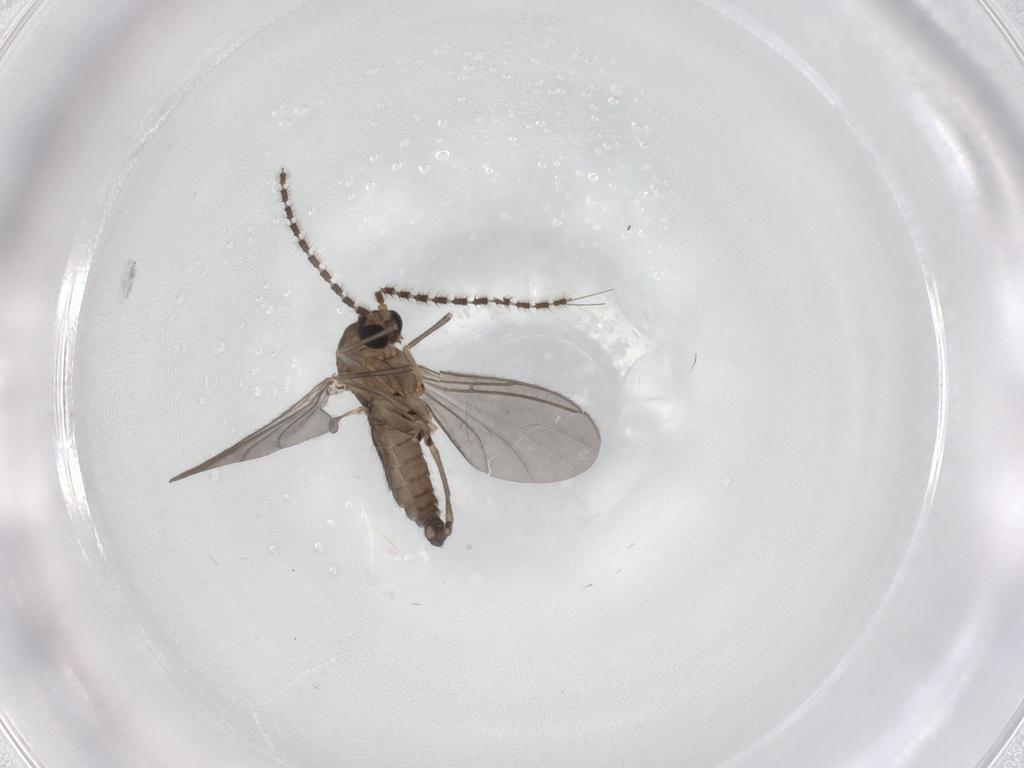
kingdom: Animalia
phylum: Arthropoda
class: Insecta
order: Diptera
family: Sciaridae
